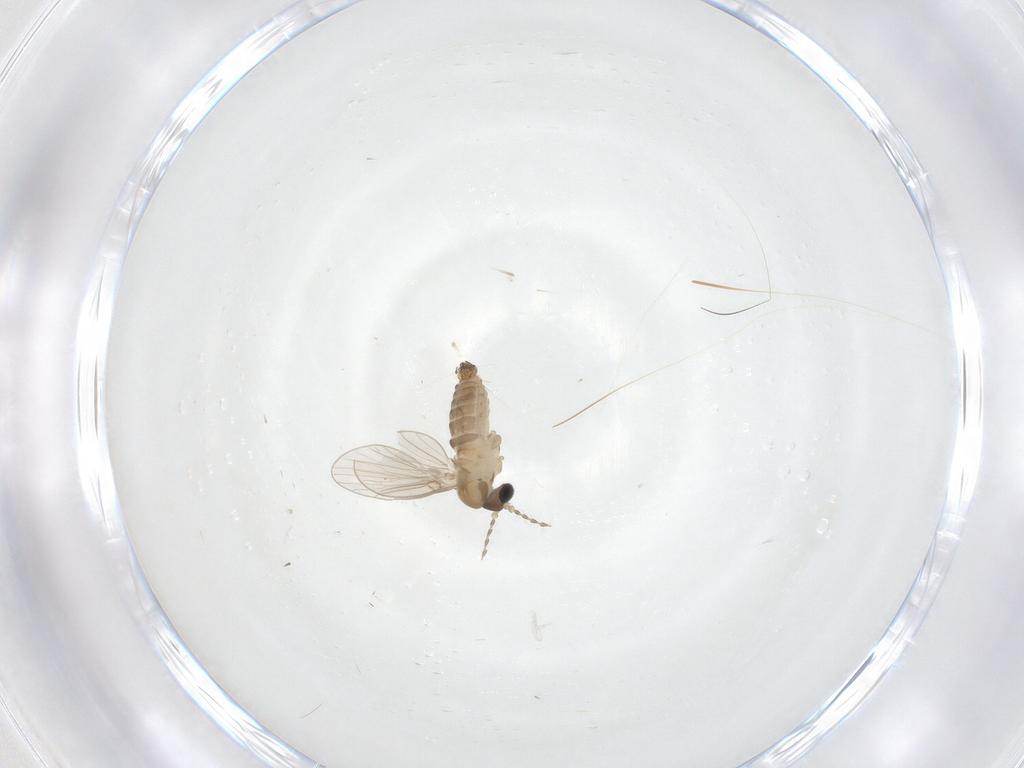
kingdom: Animalia
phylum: Arthropoda
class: Insecta
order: Diptera
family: Psychodidae
